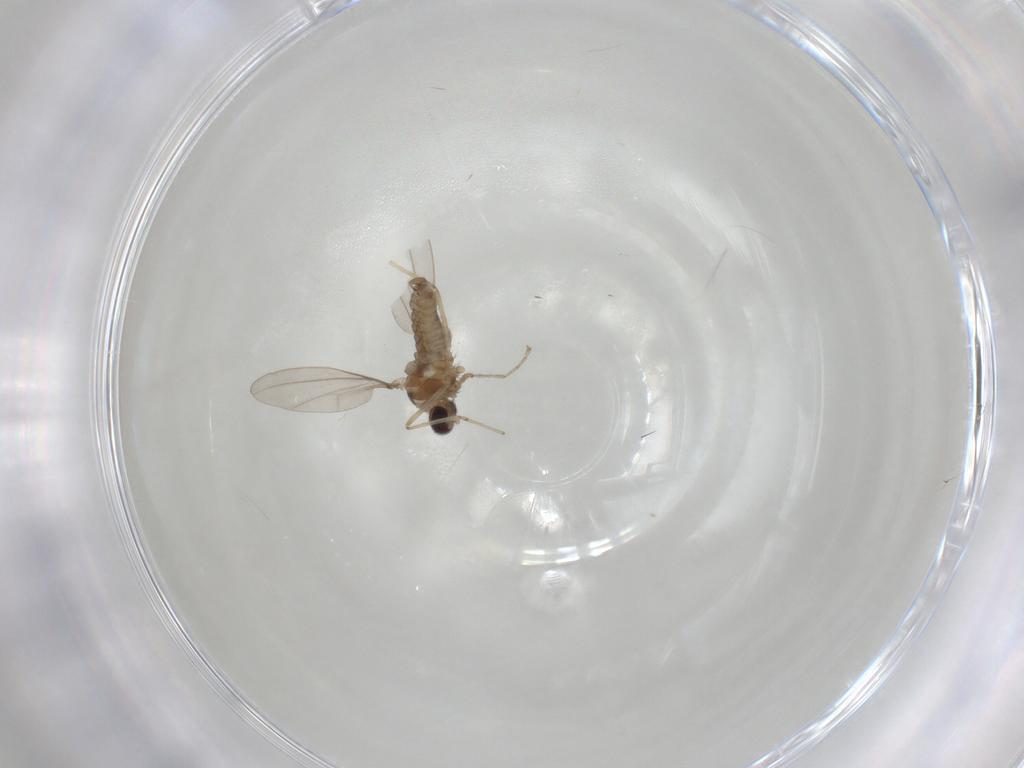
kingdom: Animalia
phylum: Arthropoda
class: Insecta
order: Diptera
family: Cecidomyiidae
